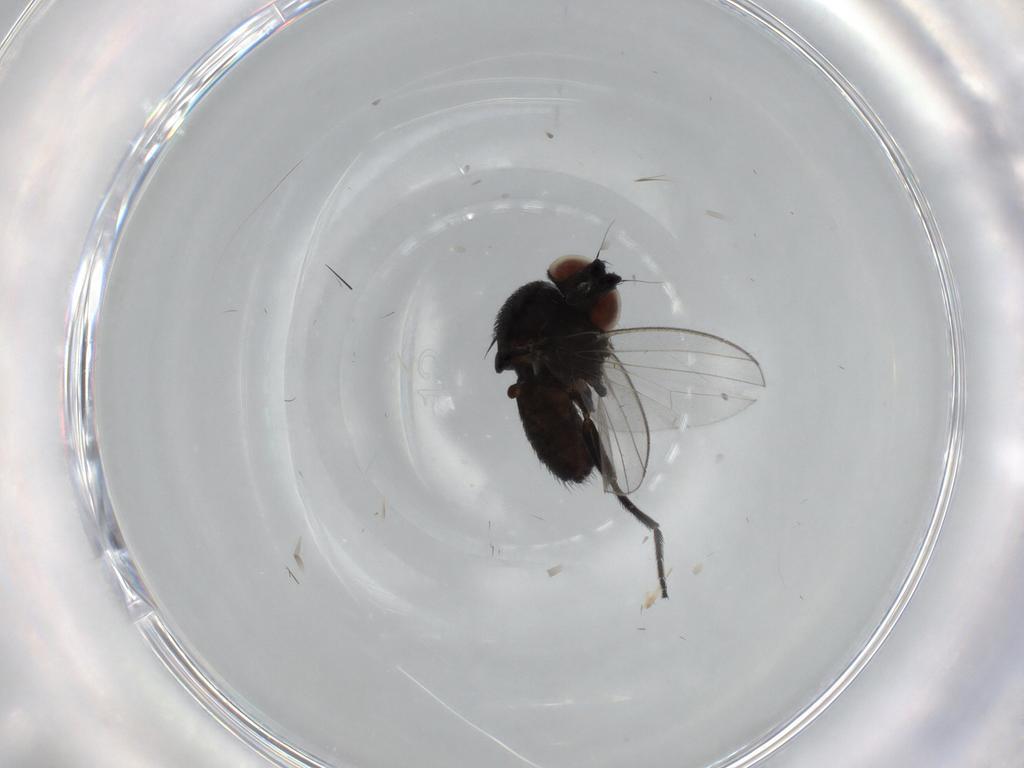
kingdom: Animalia
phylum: Arthropoda
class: Insecta
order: Diptera
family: Milichiidae
